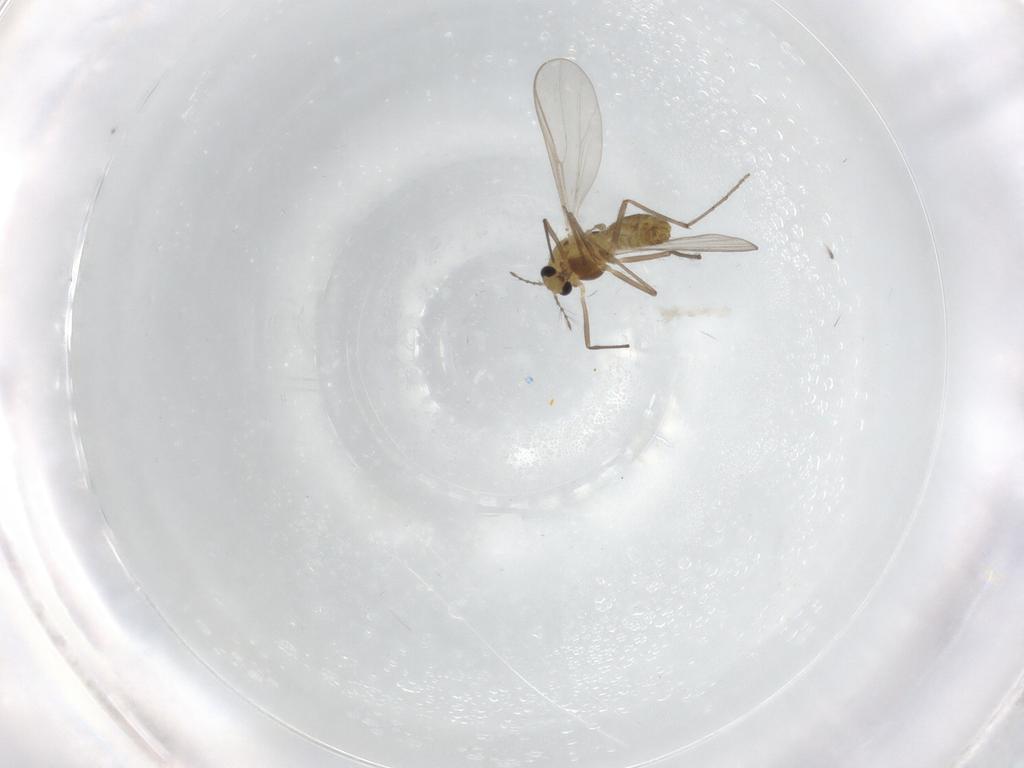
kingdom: Animalia
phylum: Arthropoda
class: Insecta
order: Diptera
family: Chironomidae
